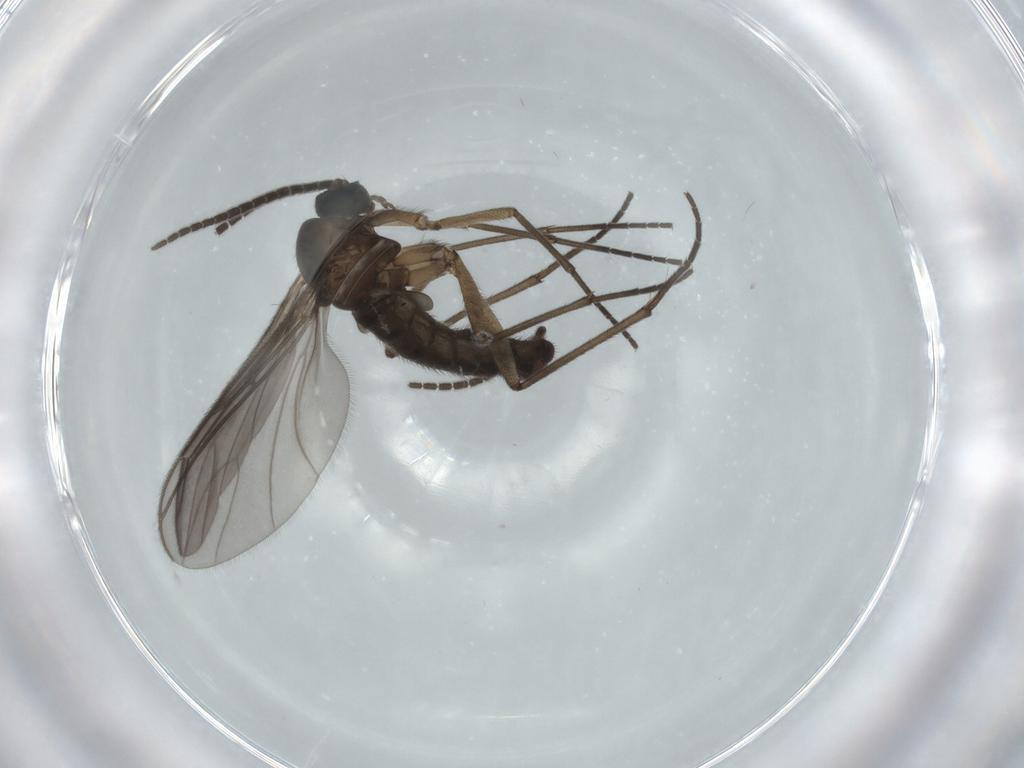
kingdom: Animalia
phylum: Arthropoda
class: Insecta
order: Diptera
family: Sciaridae
